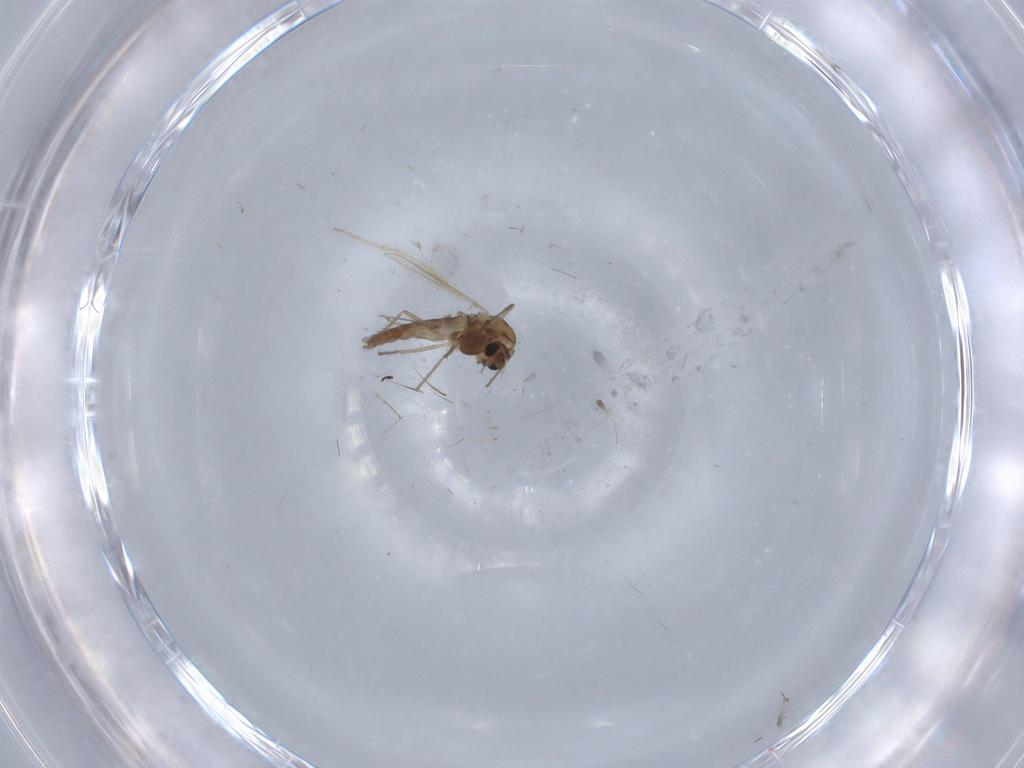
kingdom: Animalia
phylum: Arthropoda
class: Insecta
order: Diptera
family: Chironomidae
